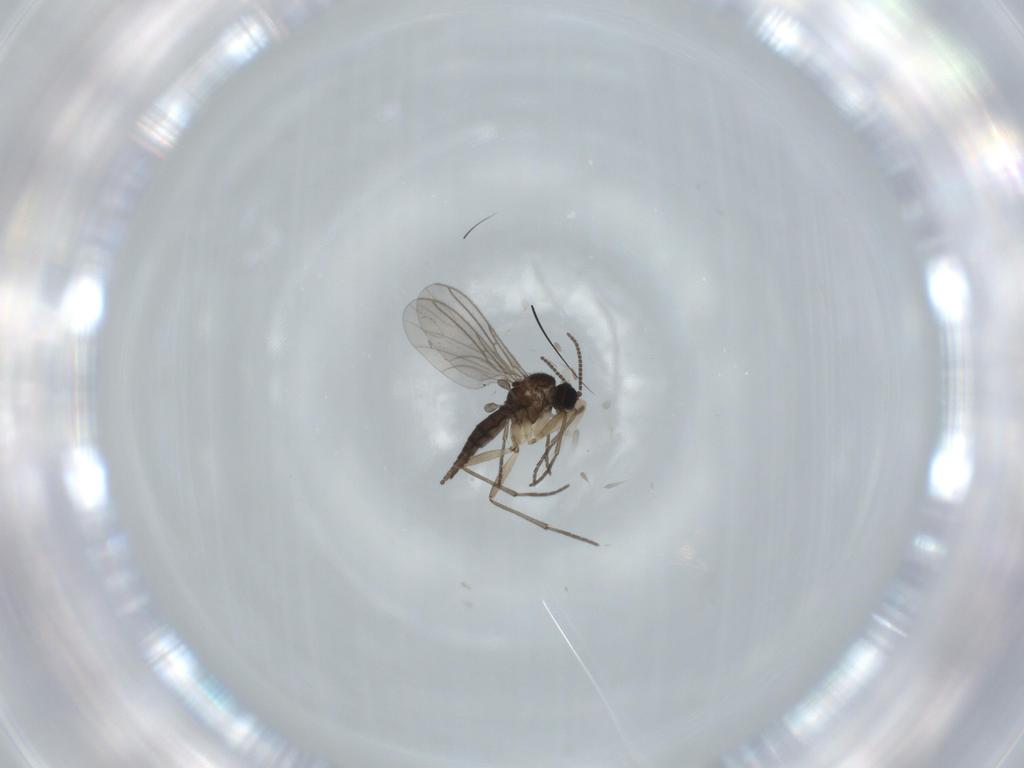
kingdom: Animalia
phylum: Arthropoda
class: Insecta
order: Diptera
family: Sciaridae
